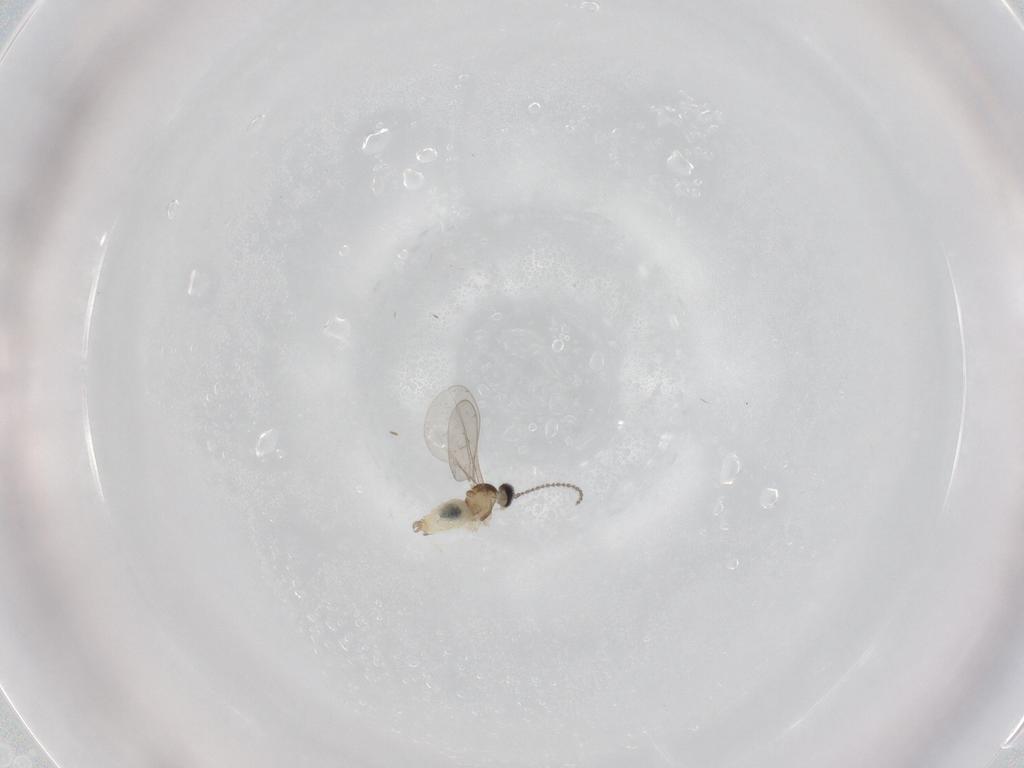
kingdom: Animalia
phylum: Arthropoda
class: Insecta
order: Diptera
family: Cecidomyiidae
